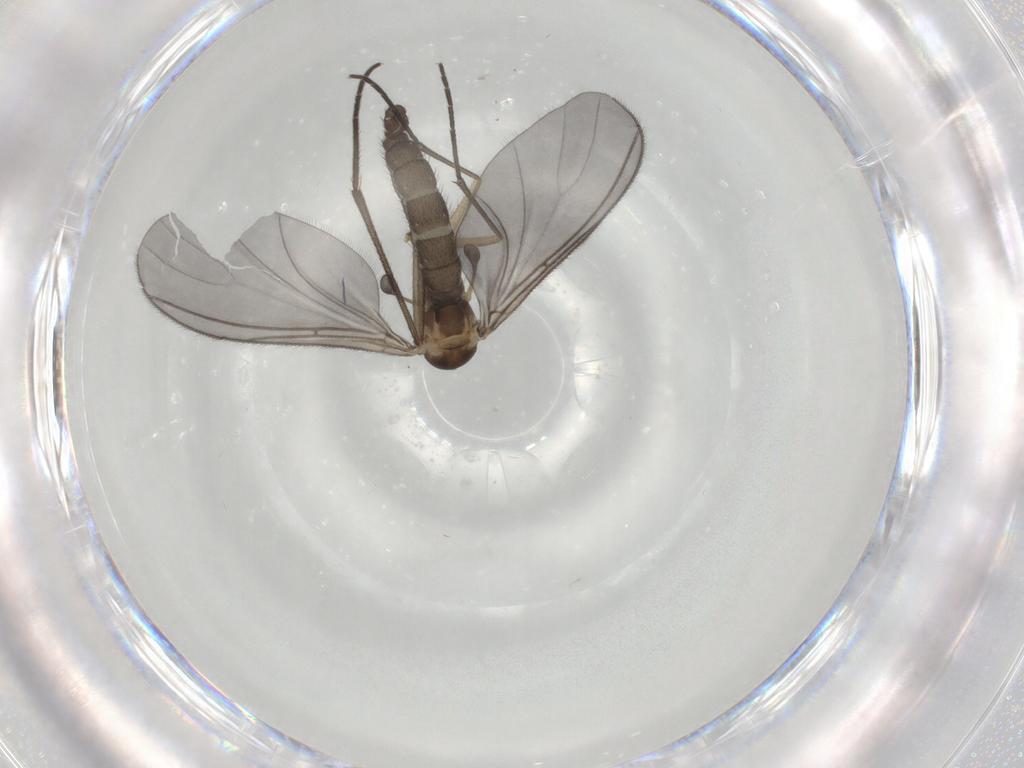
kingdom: Animalia
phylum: Arthropoda
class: Insecta
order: Diptera
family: Sciaridae
